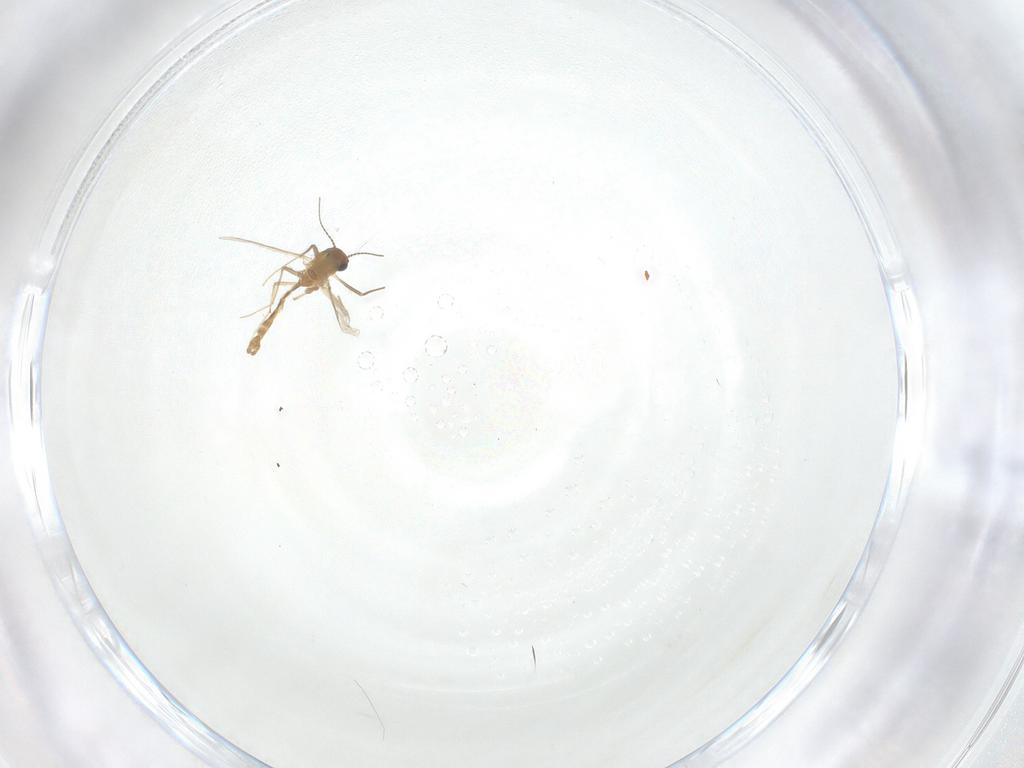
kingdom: Animalia
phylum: Arthropoda
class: Insecta
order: Diptera
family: Chironomidae
